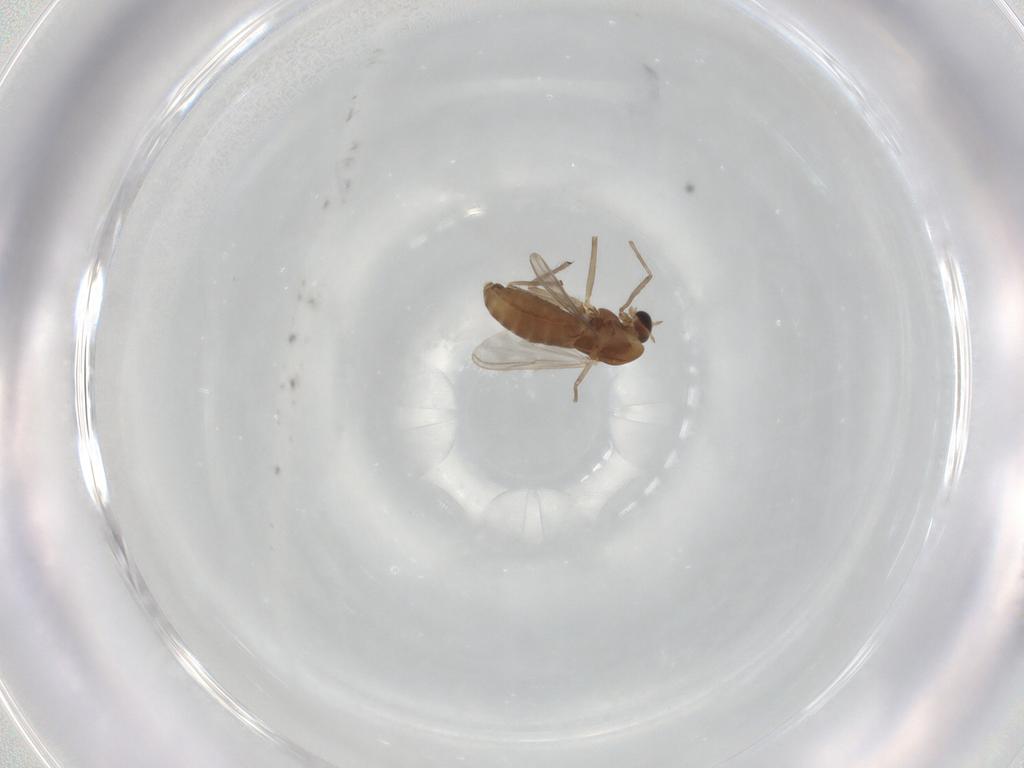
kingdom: Animalia
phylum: Arthropoda
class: Insecta
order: Diptera
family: Chironomidae
